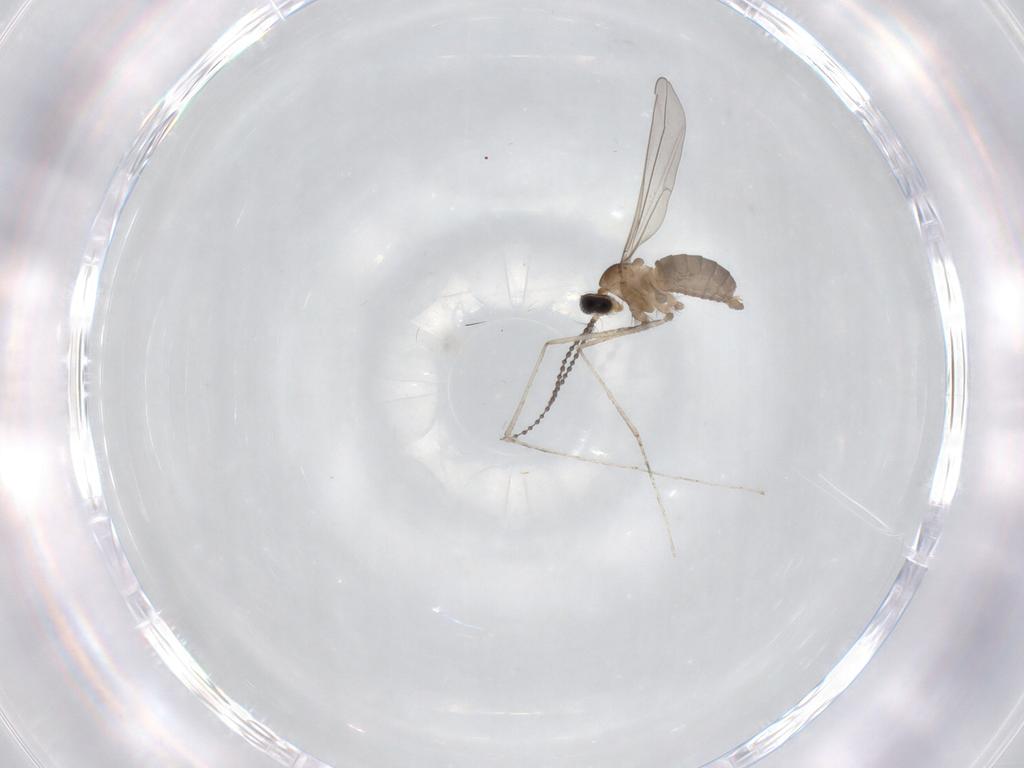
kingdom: Animalia
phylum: Arthropoda
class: Insecta
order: Diptera
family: Cecidomyiidae
